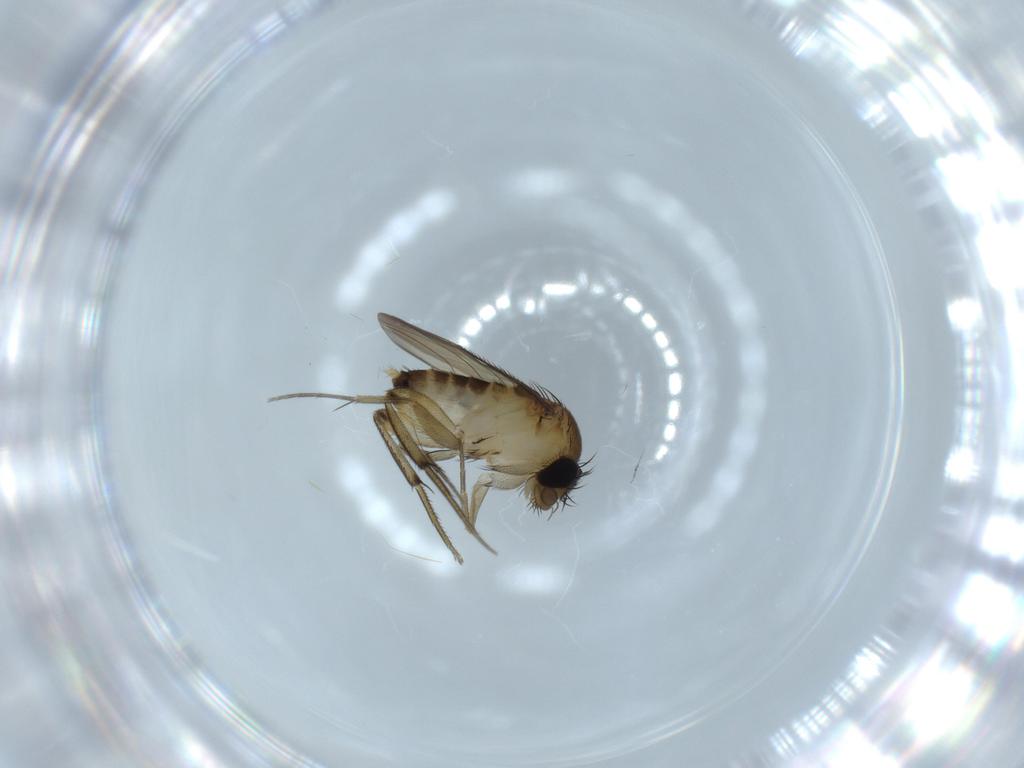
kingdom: Animalia
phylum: Arthropoda
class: Insecta
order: Diptera
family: Phoridae
